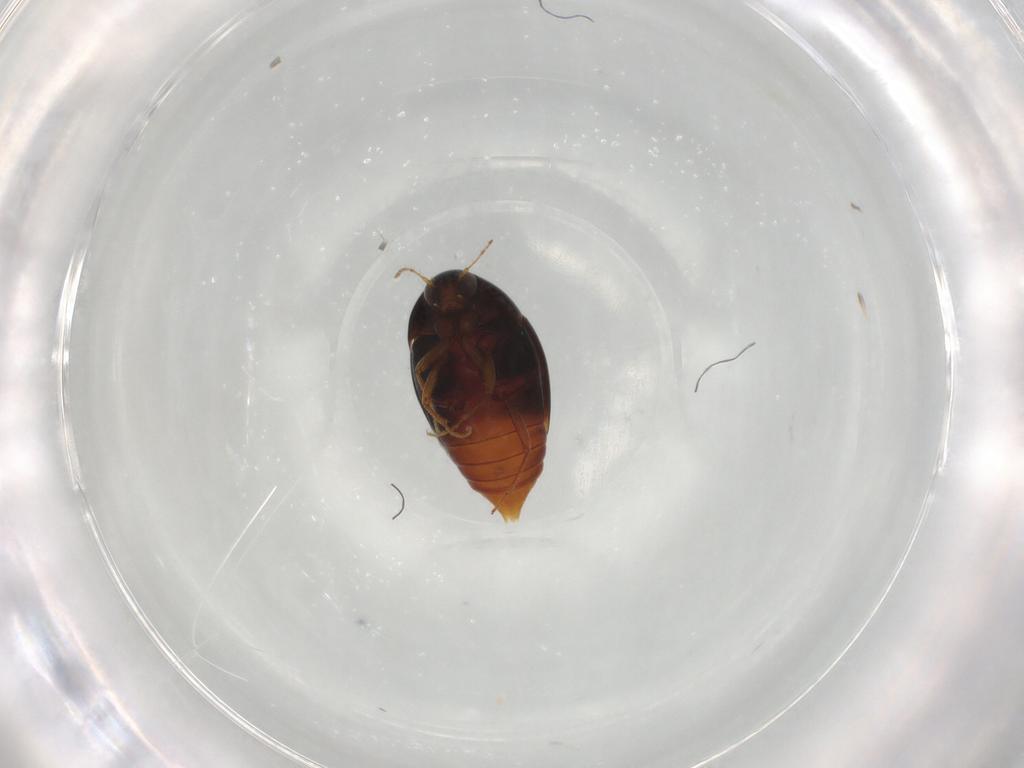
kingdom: Animalia
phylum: Arthropoda
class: Insecta
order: Coleoptera
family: Staphylinidae
